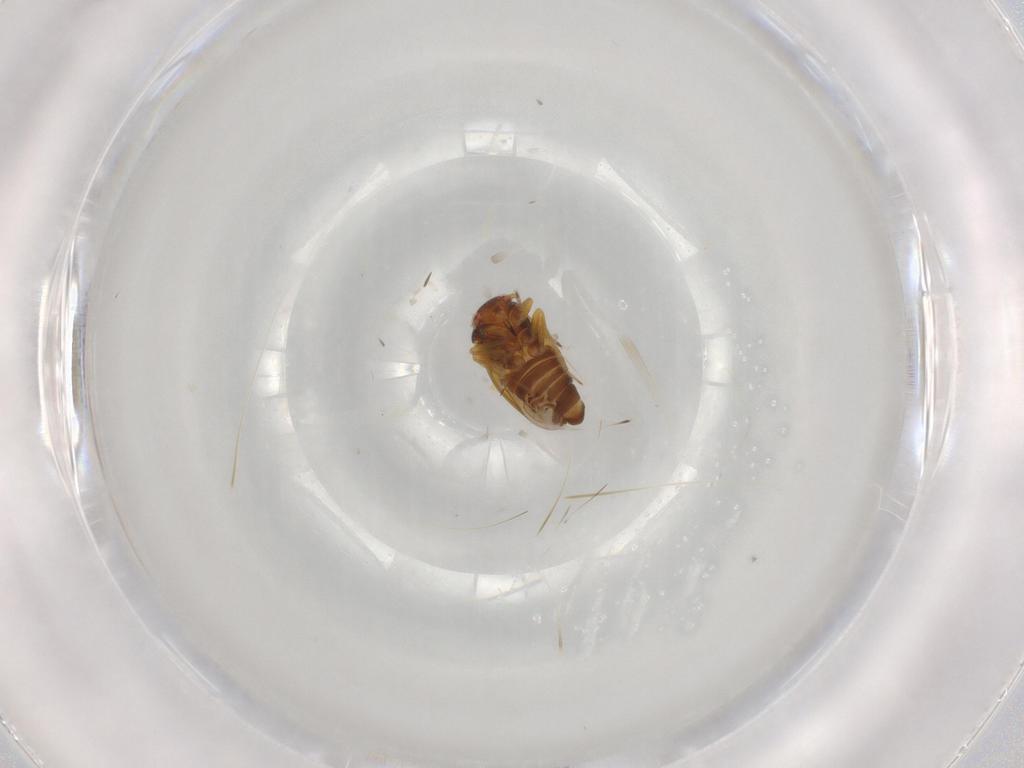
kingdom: Animalia
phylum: Arthropoda
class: Insecta
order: Hemiptera
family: Schizopteridae
